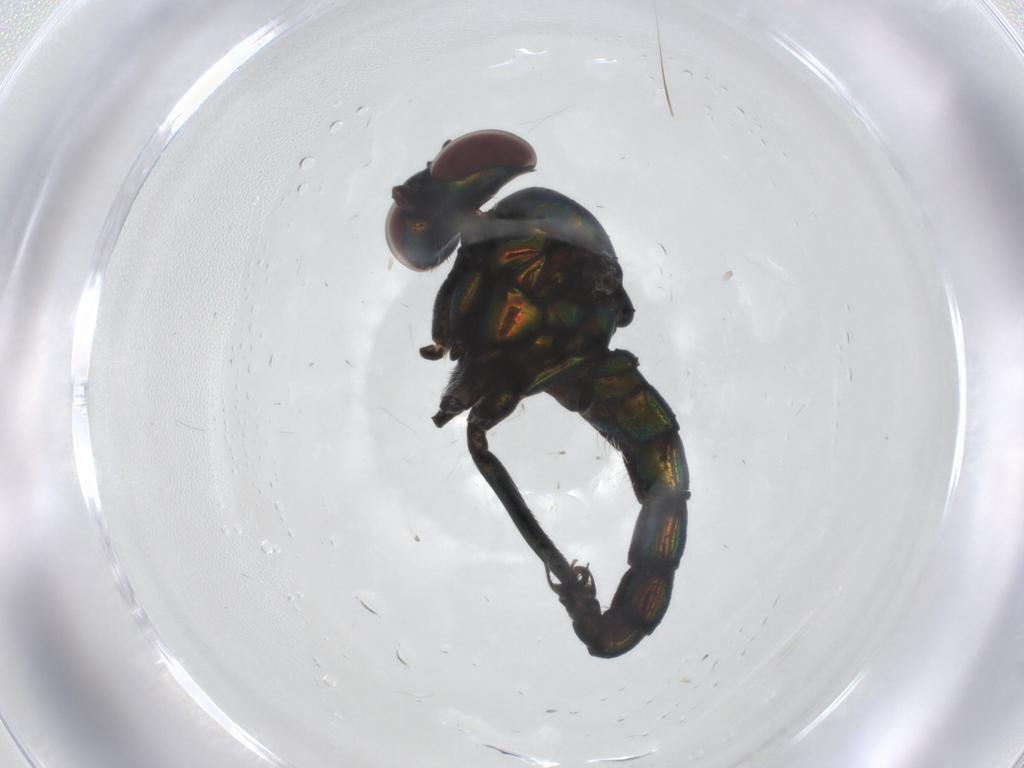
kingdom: Animalia
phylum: Arthropoda
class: Insecta
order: Diptera
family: Dolichopodidae
